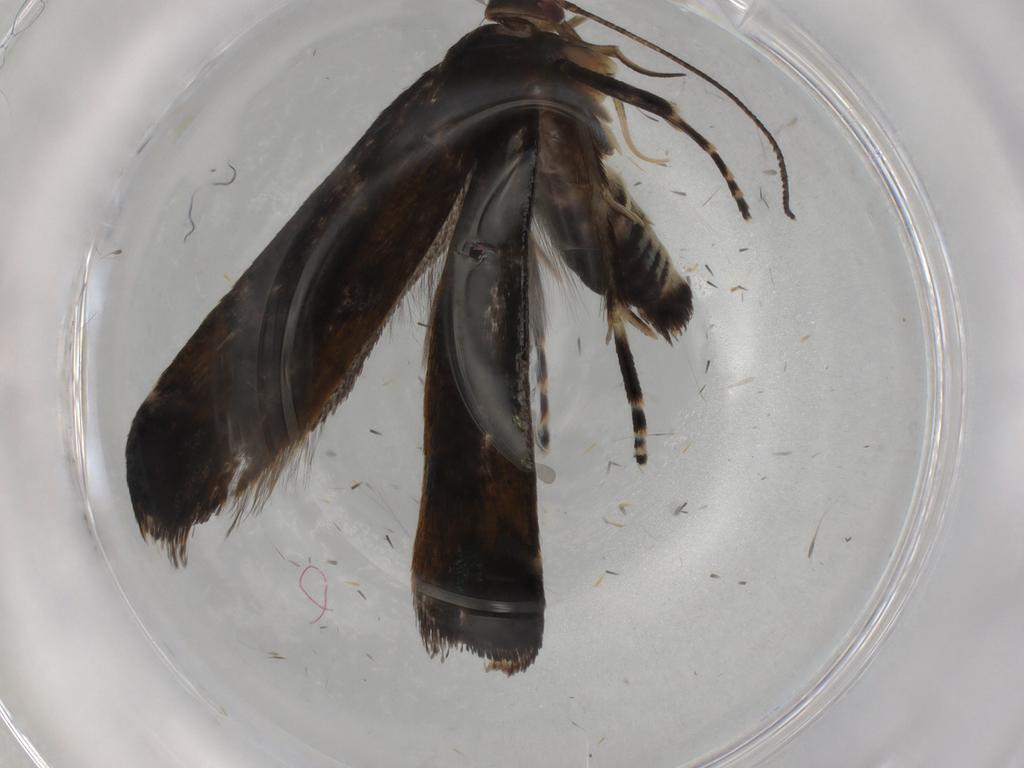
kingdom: Animalia
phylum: Arthropoda
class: Insecta
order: Lepidoptera
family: Gelechiidae
